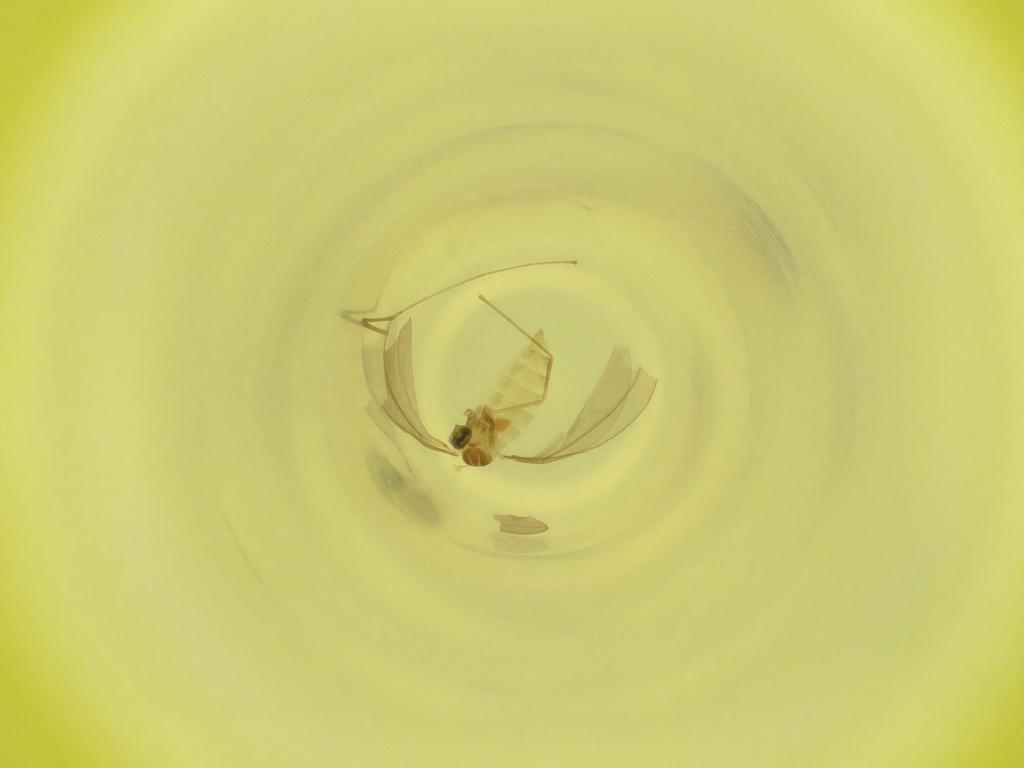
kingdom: Animalia
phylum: Arthropoda
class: Insecta
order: Diptera
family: Cecidomyiidae
